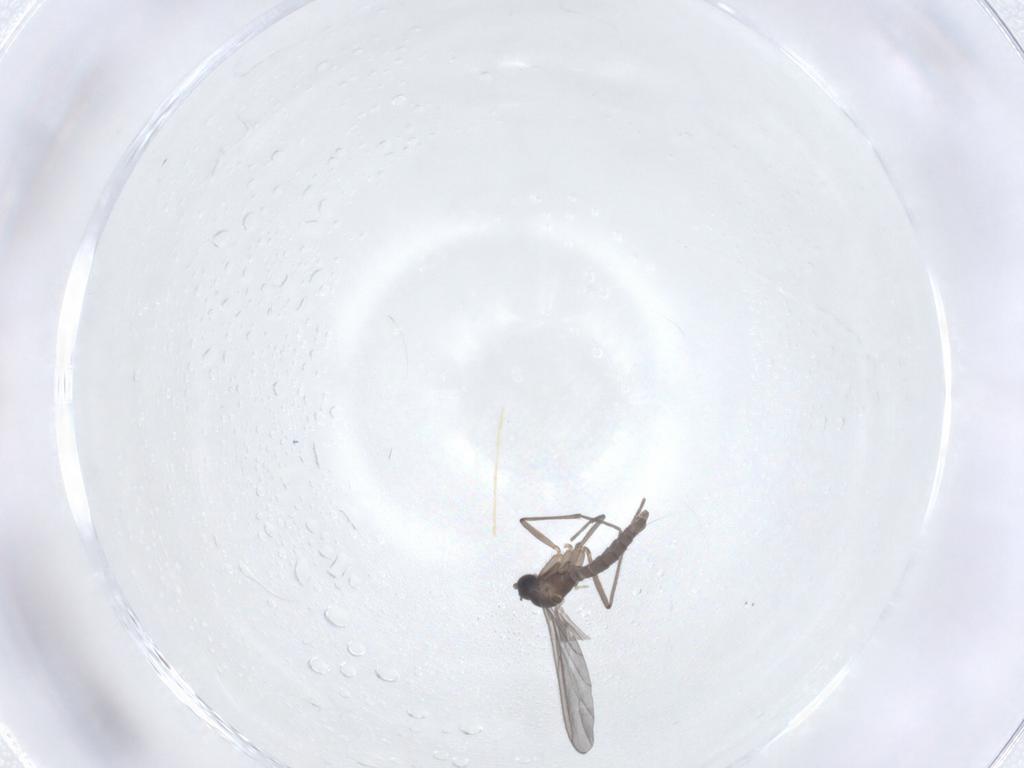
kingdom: Animalia
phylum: Arthropoda
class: Insecta
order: Diptera
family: Sciaridae
